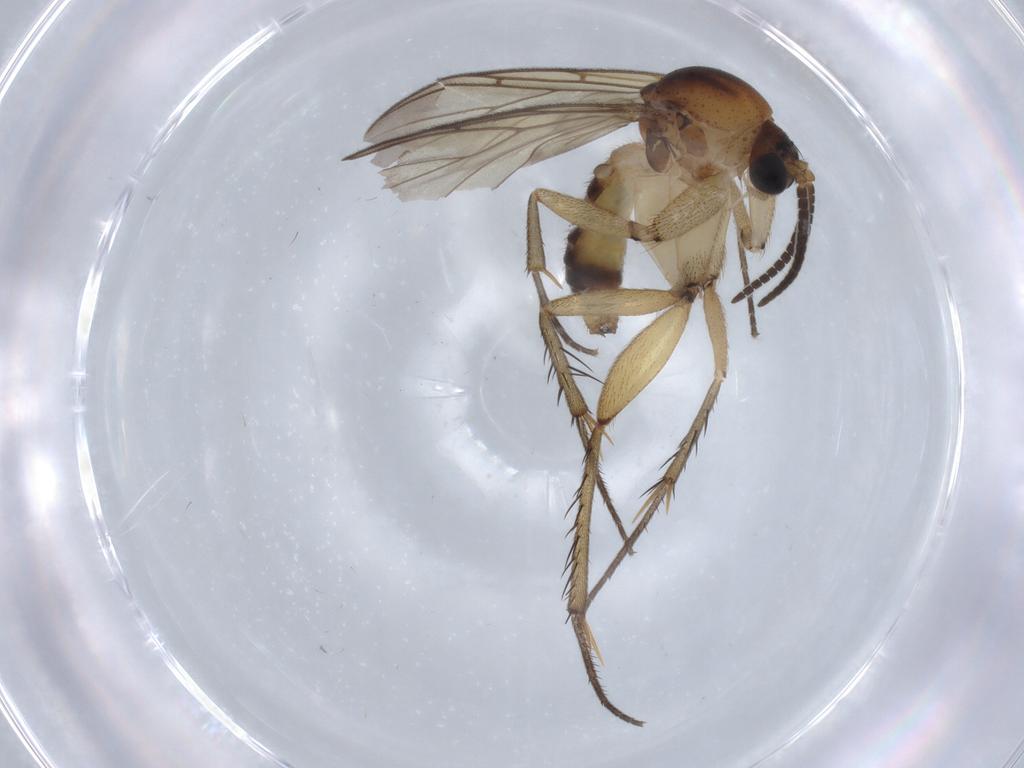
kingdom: Animalia
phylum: Arthropoda
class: Insecta
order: Diptera
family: Drosophilidae
